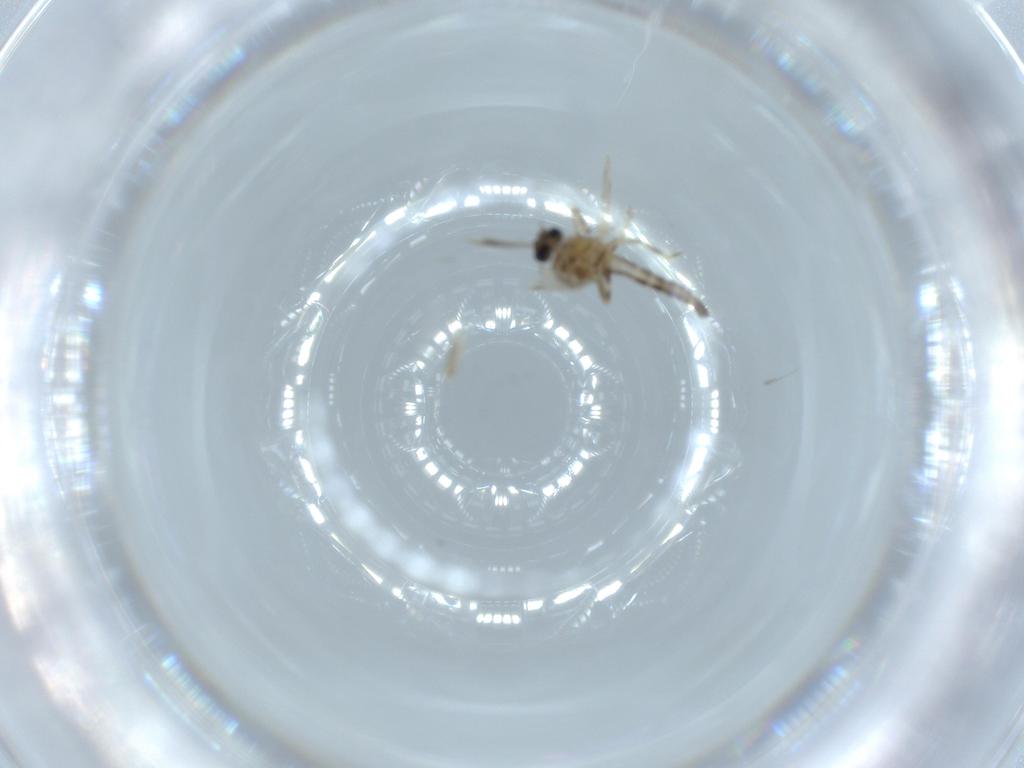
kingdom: Animalia
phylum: Arthropoda
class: Insecta
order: Diptera
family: Ceratopogonidae
